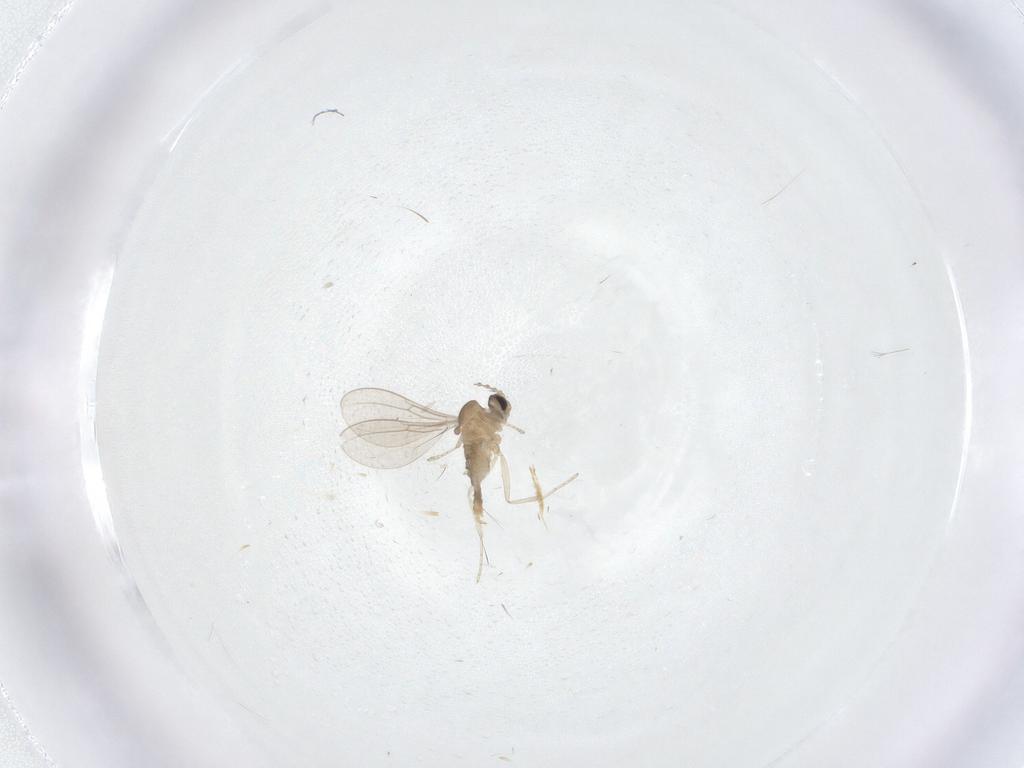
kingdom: Animalia
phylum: Arthropoda
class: Insecta
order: Diptera
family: Cecidomyiidae
